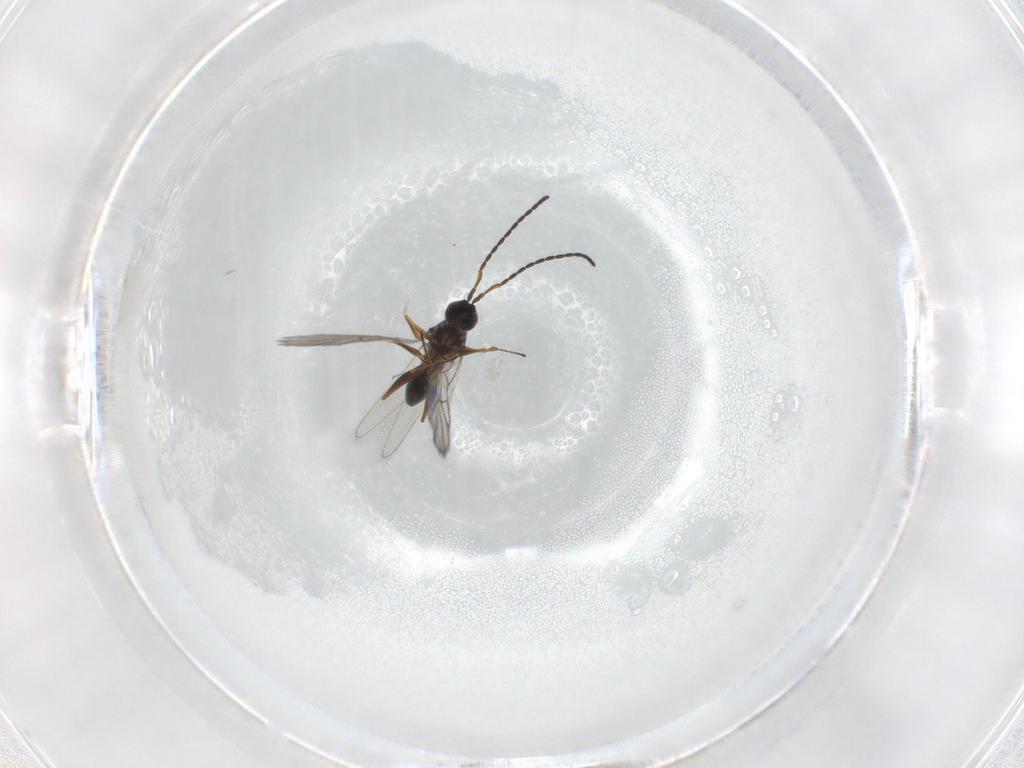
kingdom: Animalia
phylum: Arthropoda
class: Insecta
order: Hymenoptera
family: Figitidae
